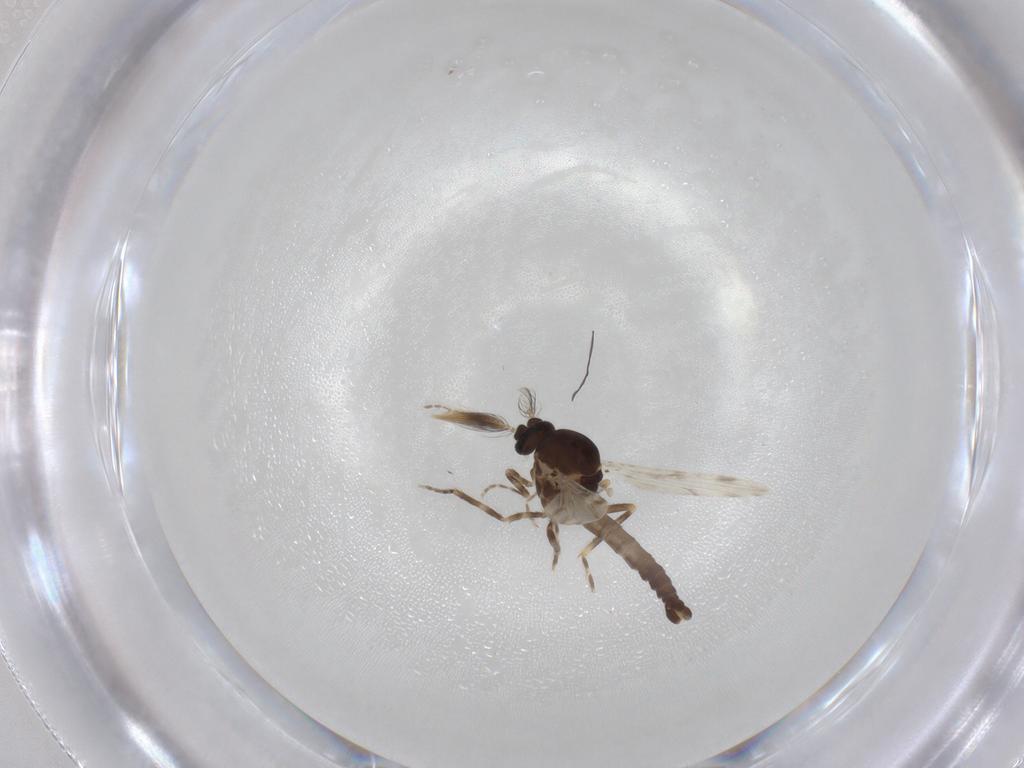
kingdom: Animalia
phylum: Arthropoda
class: Insecta
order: Diptera
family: Ceratopogonidae
